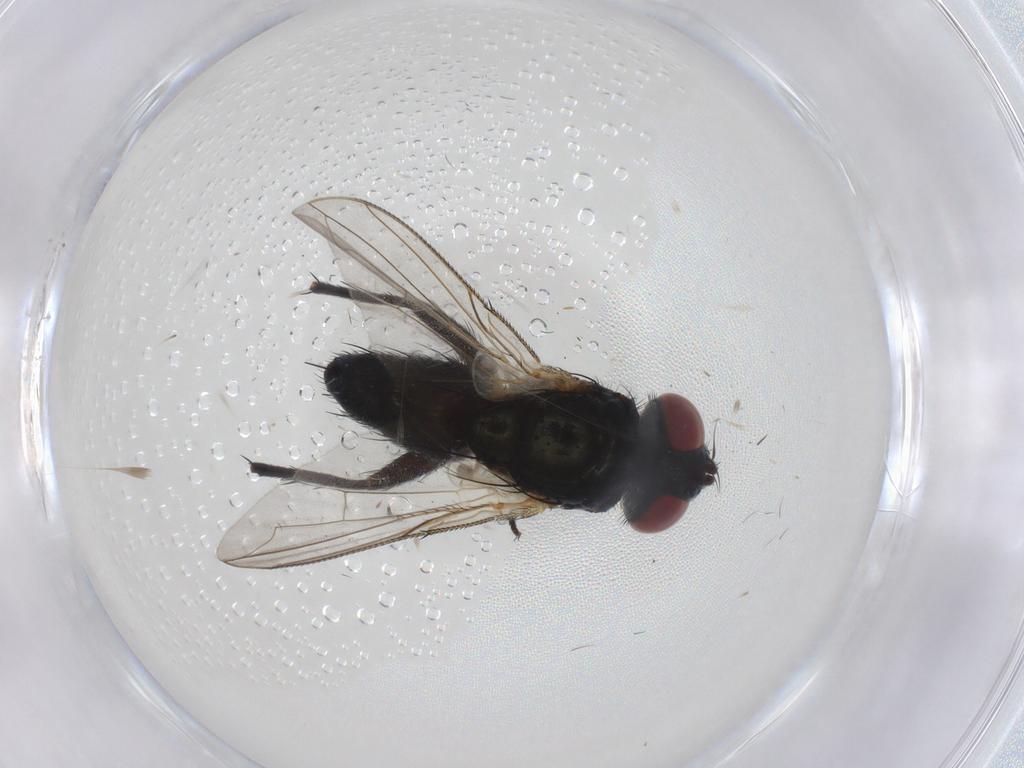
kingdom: Animalia
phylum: Arthropoda
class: Insecta
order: Diptera
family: Tachinidae
